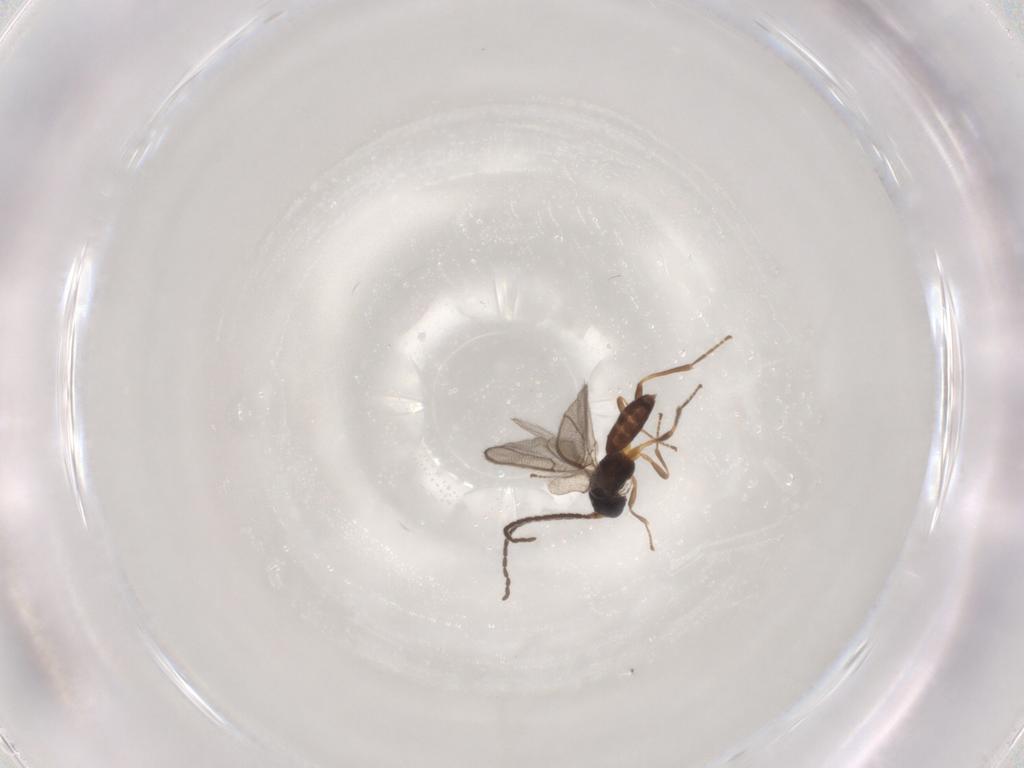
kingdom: Animalia
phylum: Arthropoda
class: Insecta
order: Hymenoptera
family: Braconidae
